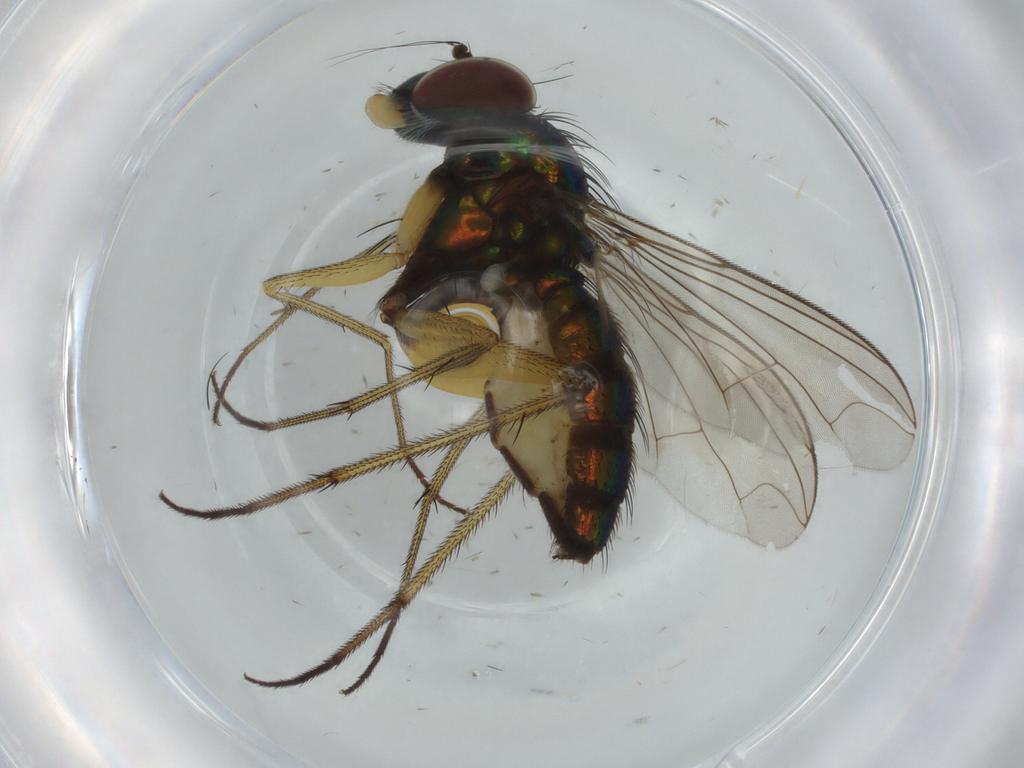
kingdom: Animalia
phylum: Arthropoda
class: Insecta
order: Diptera
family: Dolichopodidae
